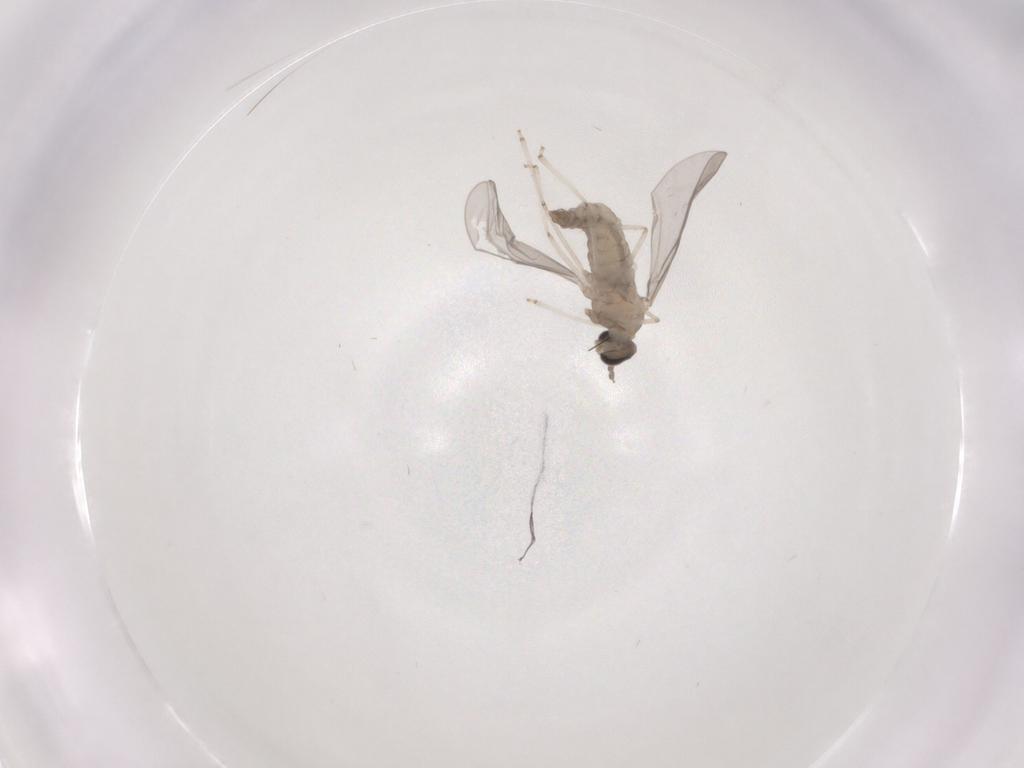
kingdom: Animalia
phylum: Arthropoda
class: Insecta
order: Diptera
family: Cecidomyiidae
